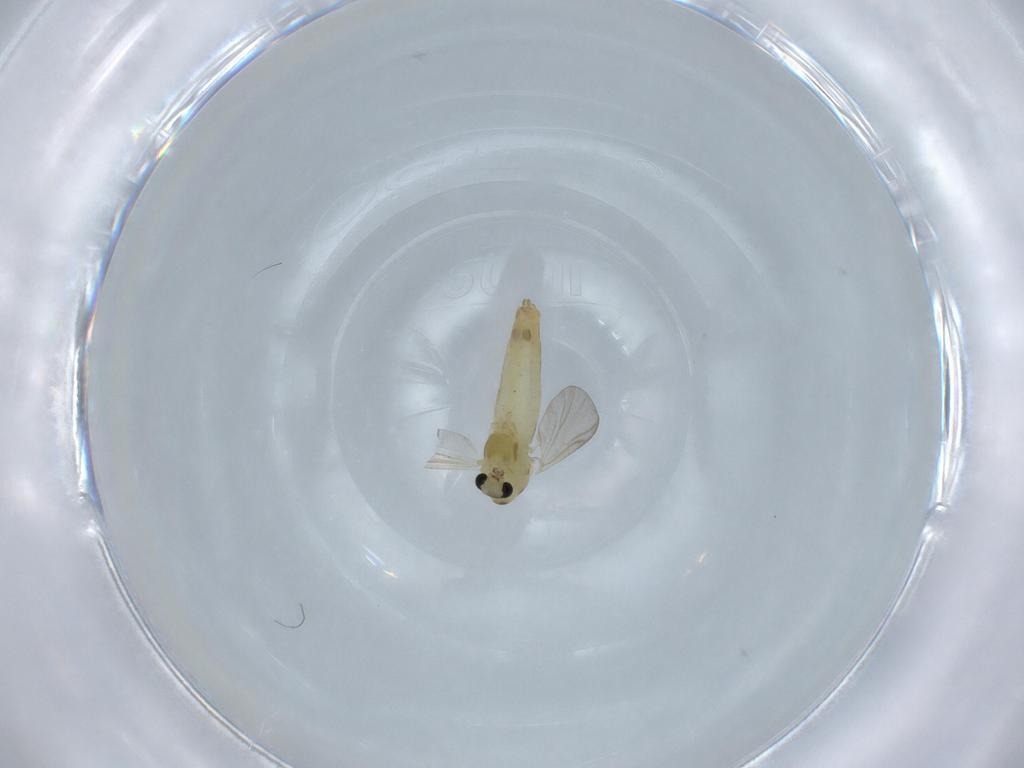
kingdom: Animalia
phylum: Arthropoda
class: Insecta
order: Diptera
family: Chironomidae
